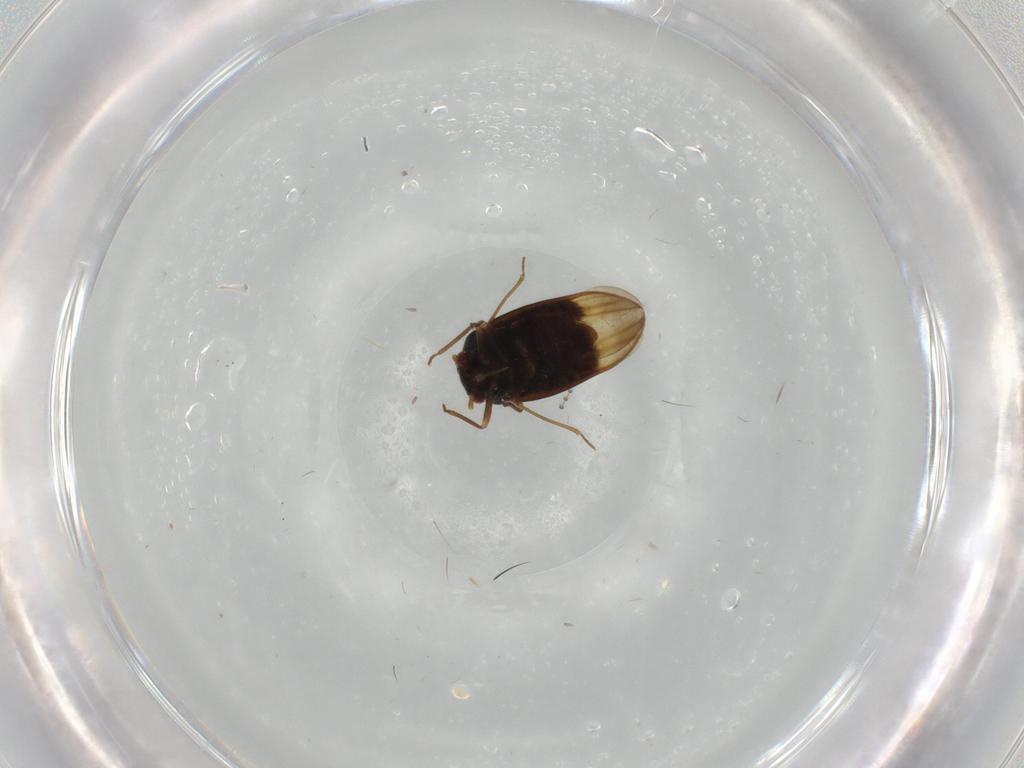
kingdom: Animalia
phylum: Arthropoda
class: Insecta
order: Hemiptera
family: Schizopteridae
